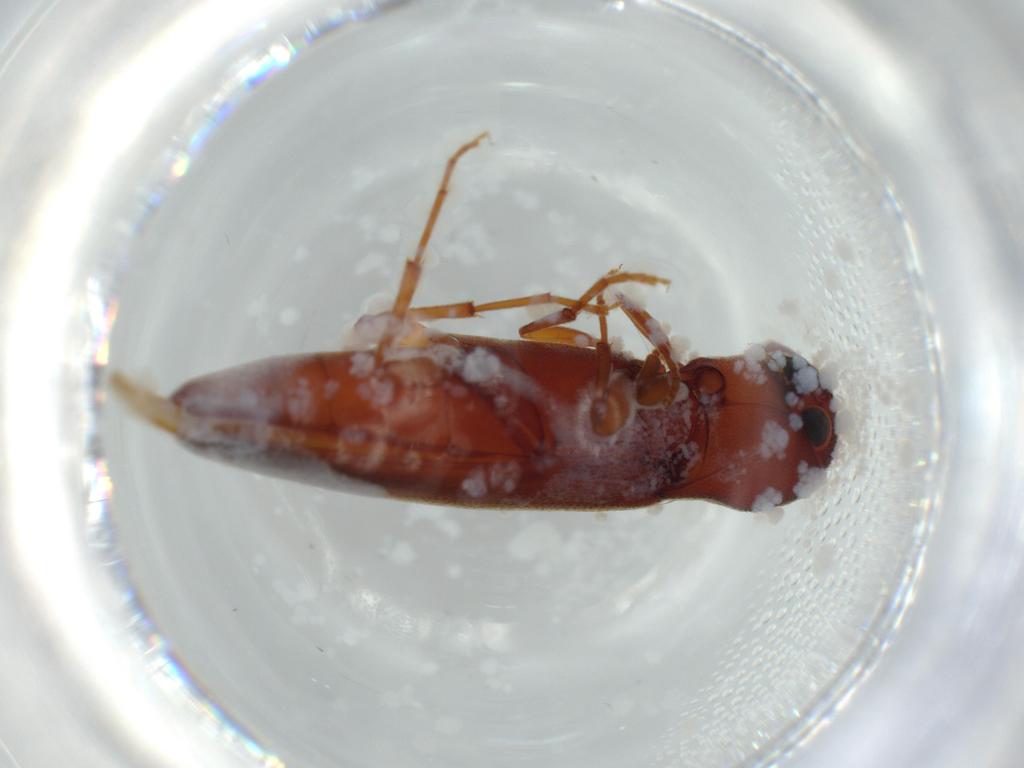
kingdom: Animalia
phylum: Arthropoda
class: Insecta
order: Coleoptera
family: Eucnemidae
